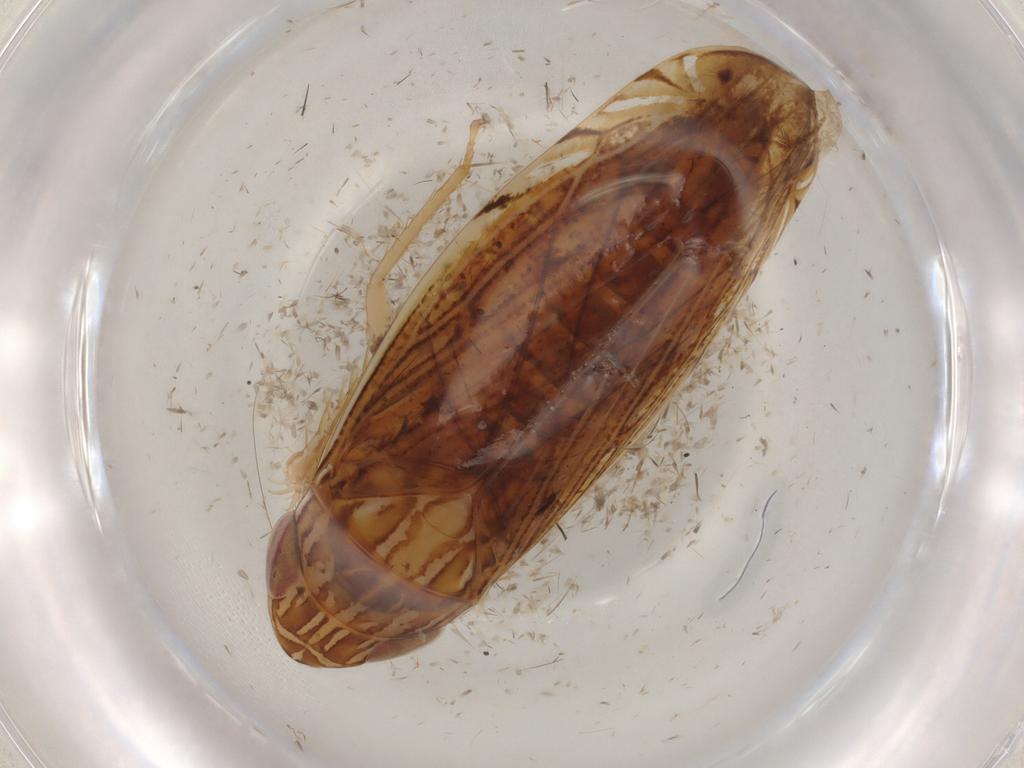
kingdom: Animalia
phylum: Arthropoda
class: Insecta
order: Hemiptera
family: Cicadellidae
